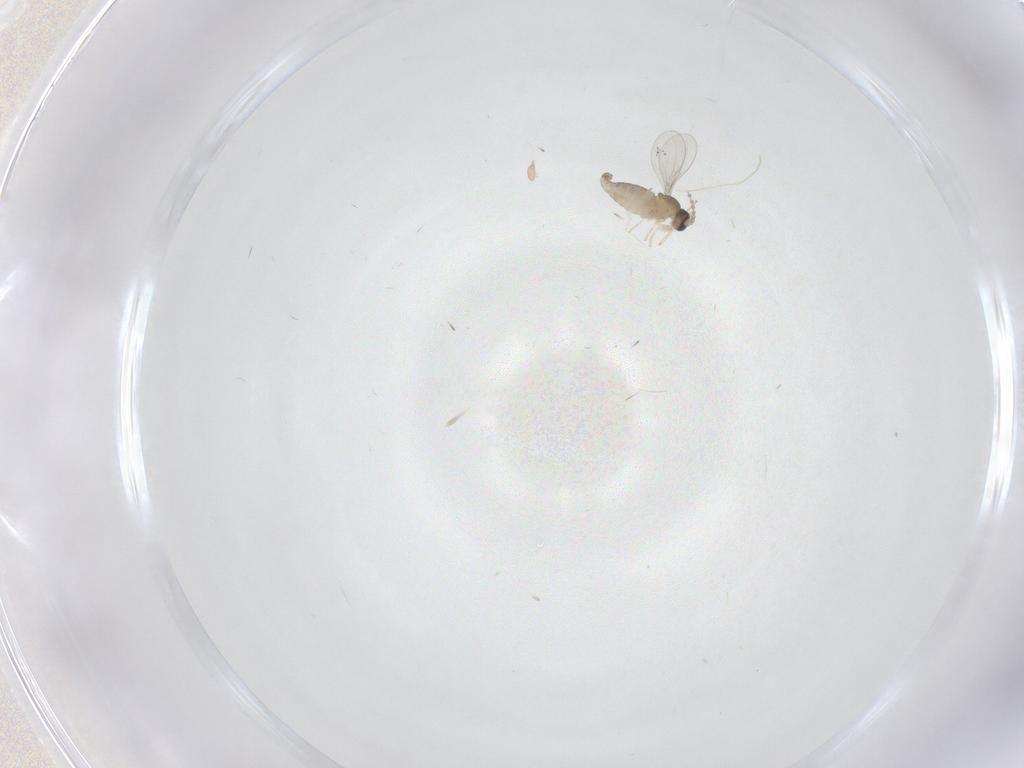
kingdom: Animalia
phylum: Arthropoda
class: Insecta
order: Diptera
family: Cecidomyiidae
